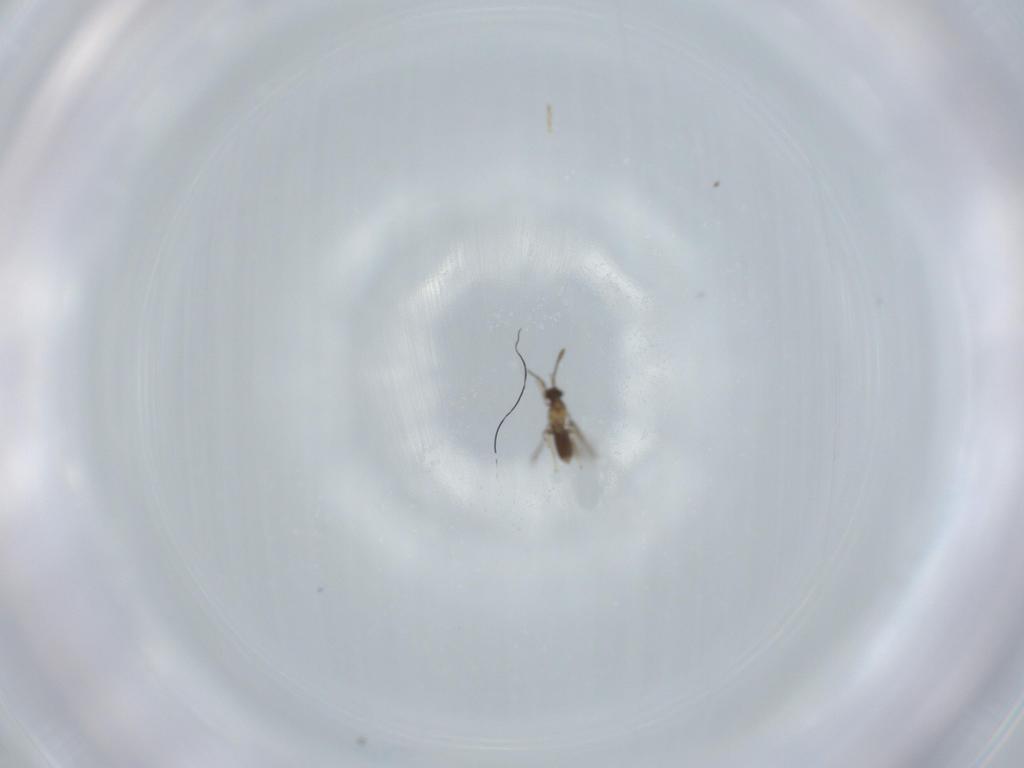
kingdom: Animalia
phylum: Arthropoda
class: Insecta
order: Hymenoptera
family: Mymaridae
